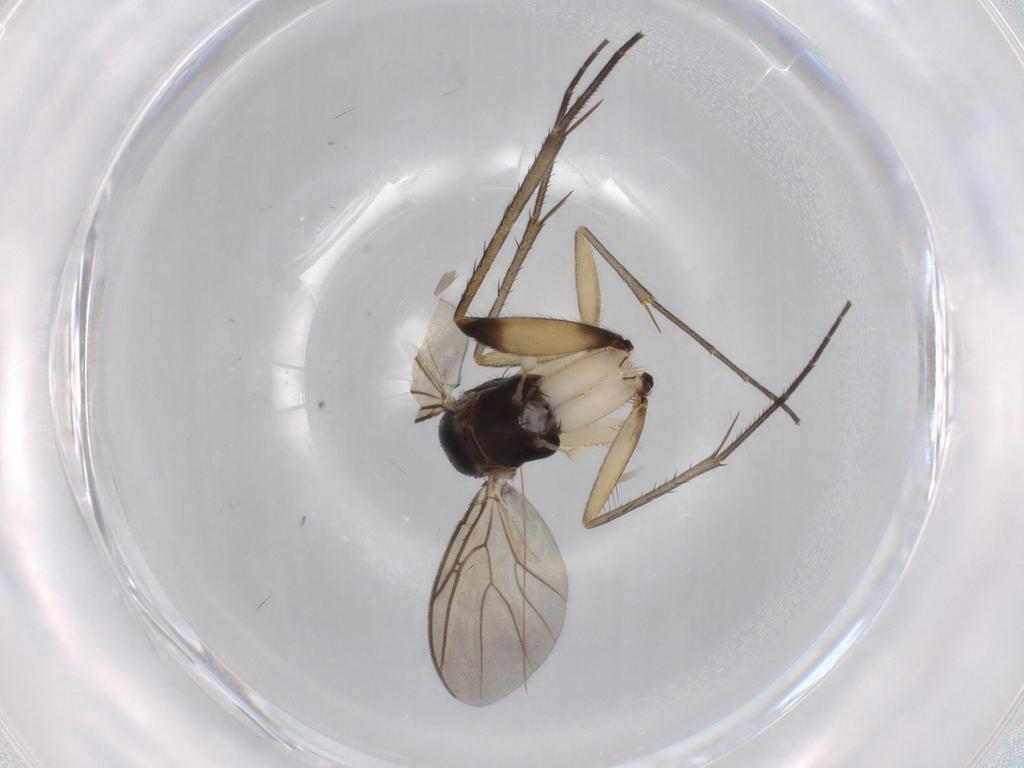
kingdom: Animalia
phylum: Arthropoda
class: Insecta
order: Diptera
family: Mycetophilidae
